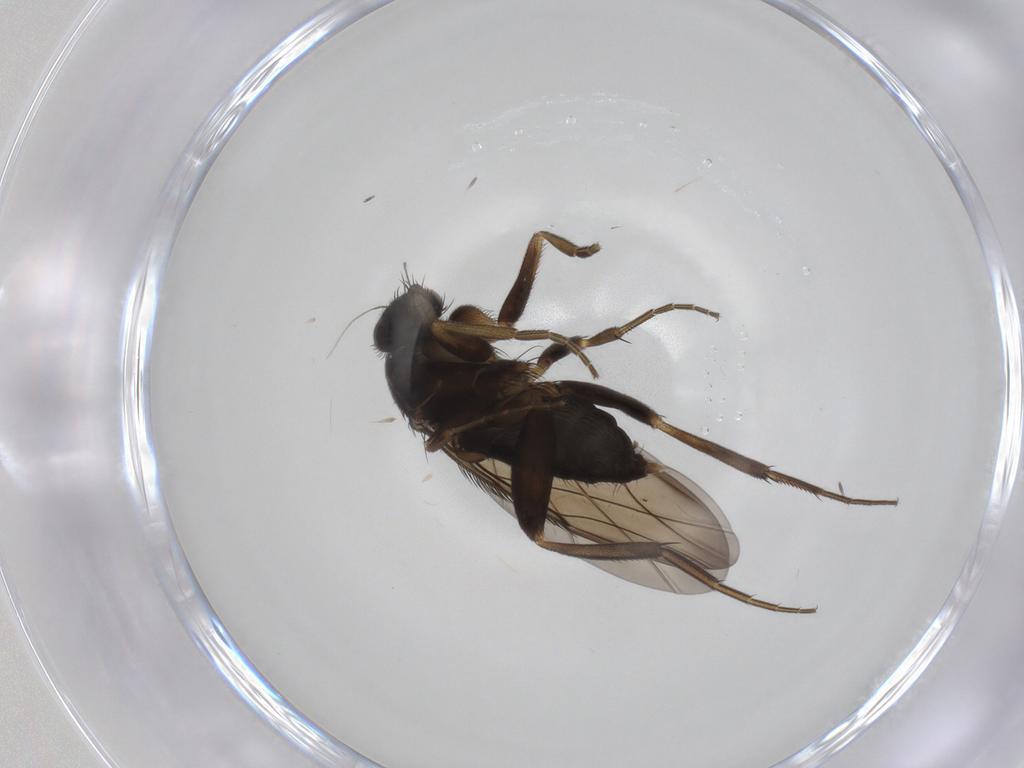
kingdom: Animalia
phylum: Arthropoda
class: Insecta
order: Diptera
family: Phoridae
